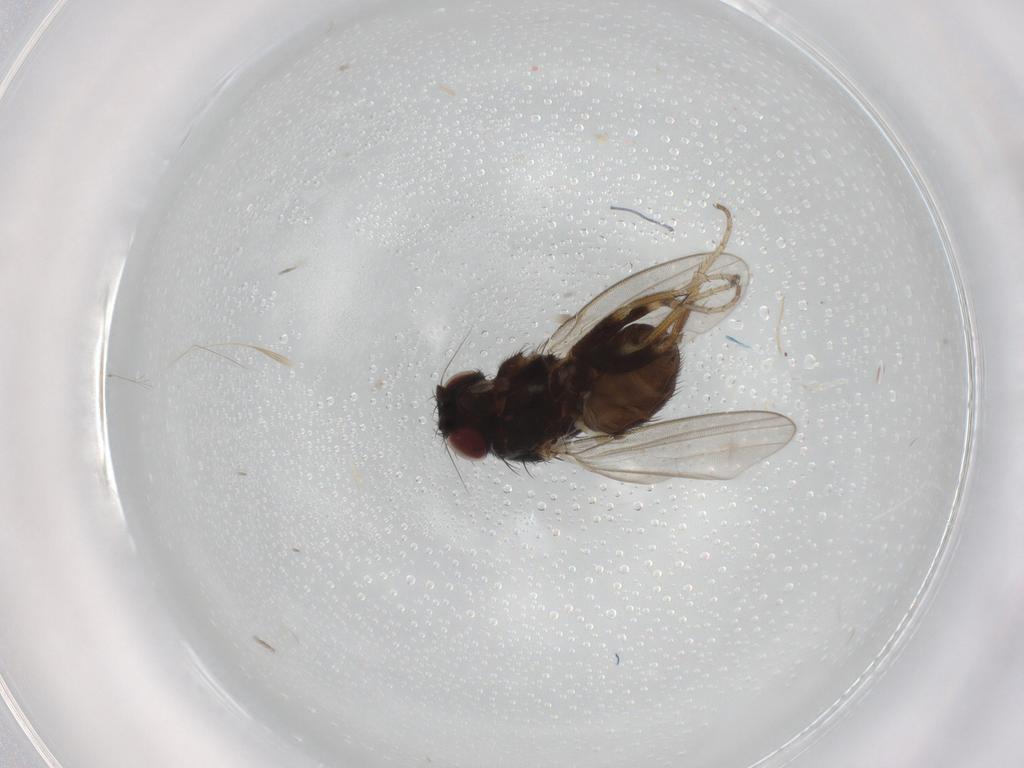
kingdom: Animalia
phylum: Arthropoda
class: Insecta
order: Diptera
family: Milichiidae
